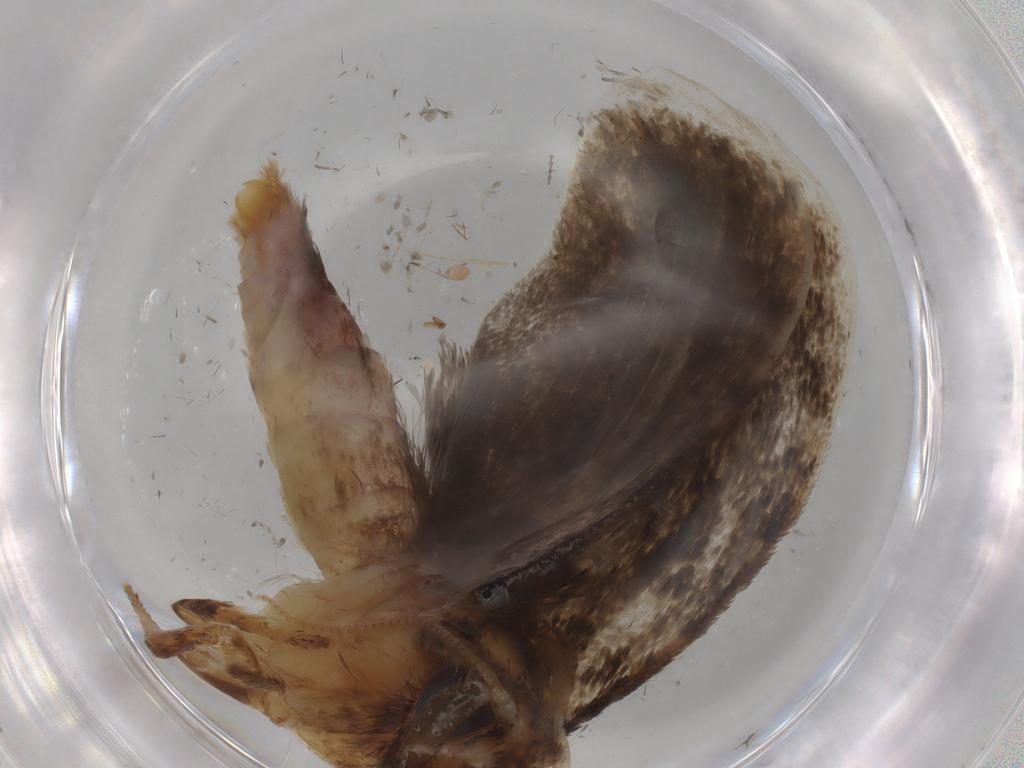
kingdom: Animalia
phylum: Arthropoda
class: Insecta
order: Lepidoptera
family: Tineidae
